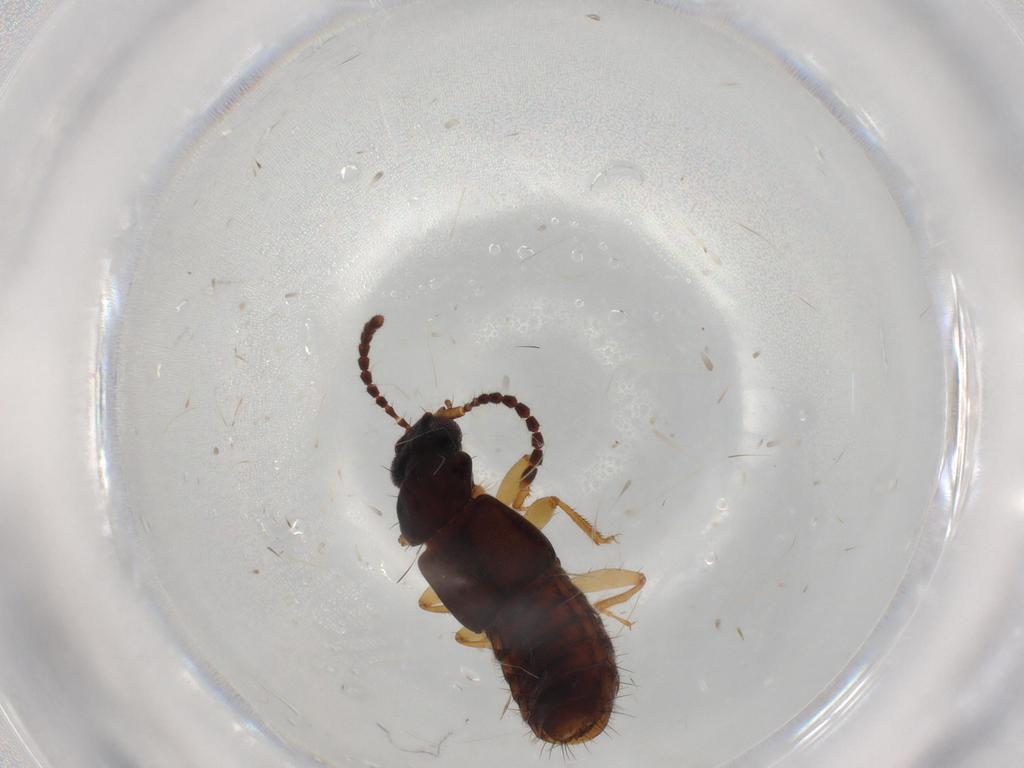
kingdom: Animalia
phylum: Arthropoda
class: Insecta
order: Coleoptera
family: Staphylinidae
